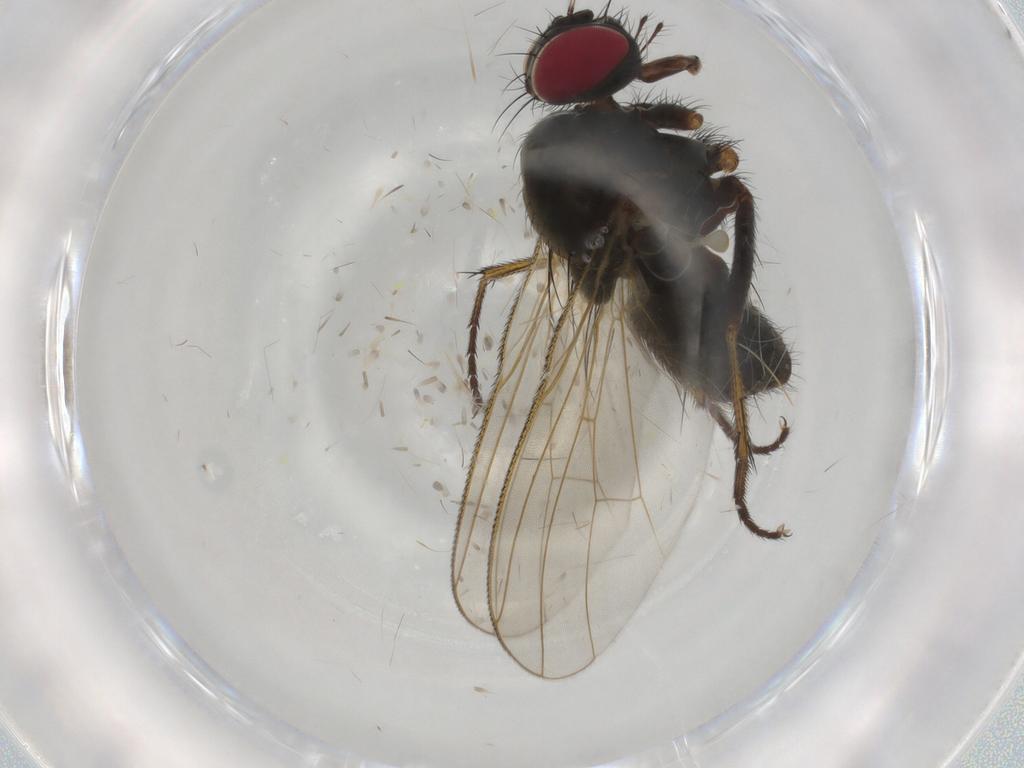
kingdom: Animalia
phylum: Arthropoda
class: Insecta
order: Diptera
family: Muscidae
